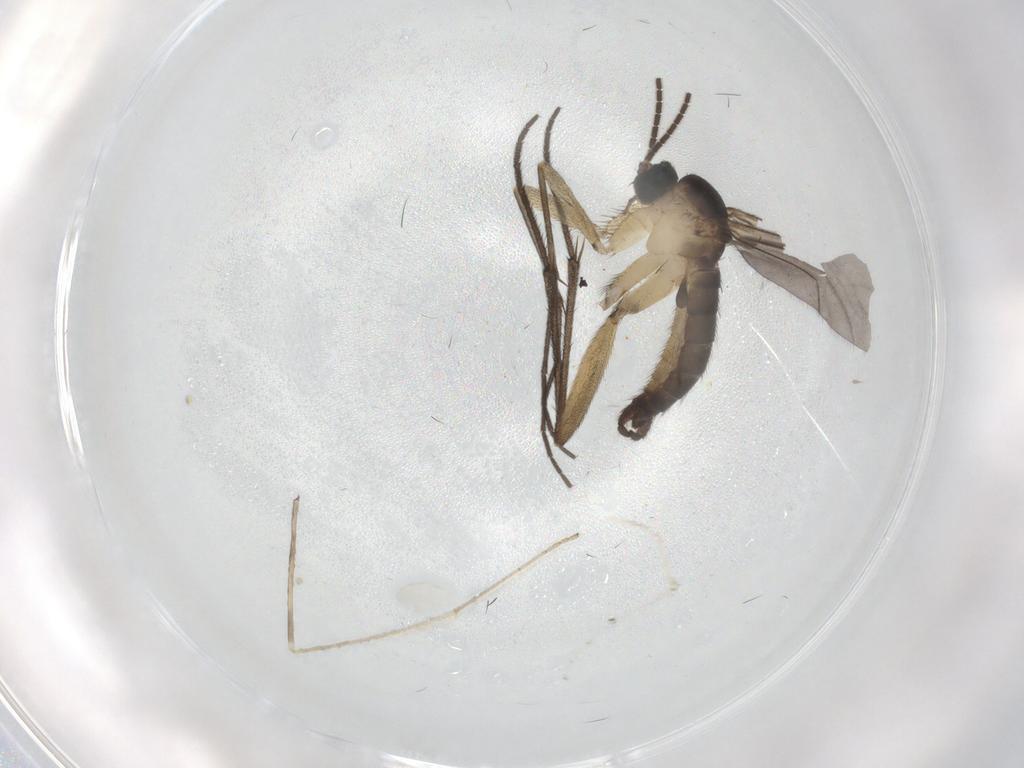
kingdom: Animalia
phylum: Arthropoda
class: Insecta
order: Diptera
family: Sciaridae
